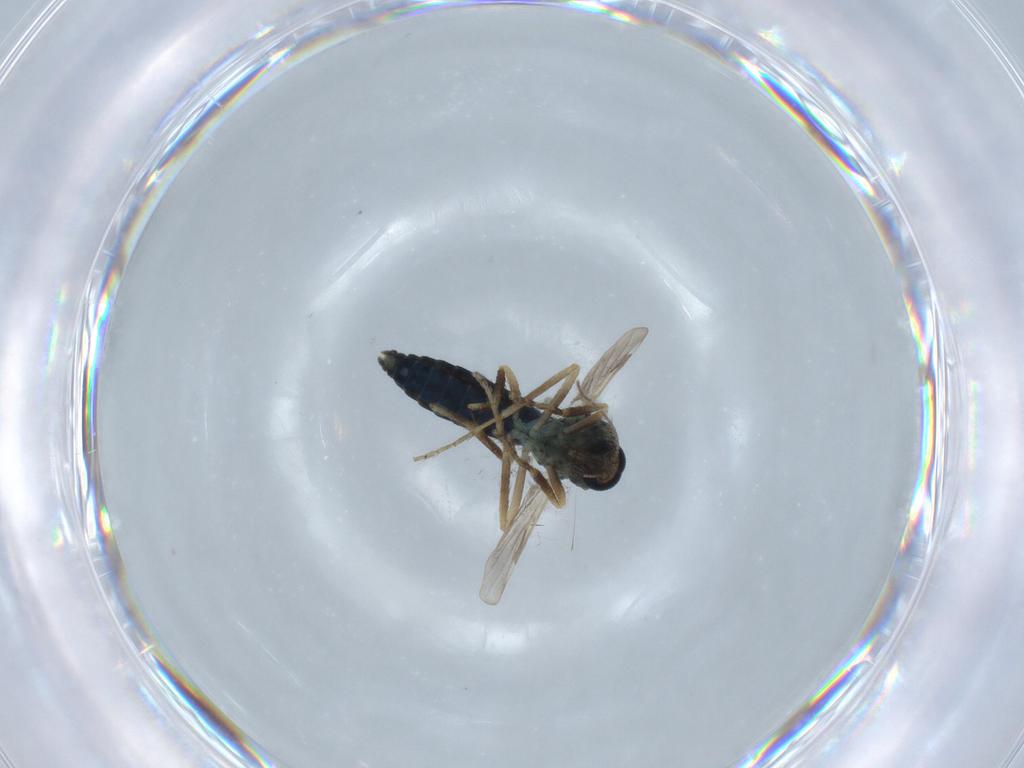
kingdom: Animalia
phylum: Arthropoda
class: Insecta
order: Diptera
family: Ceratopogonidae
